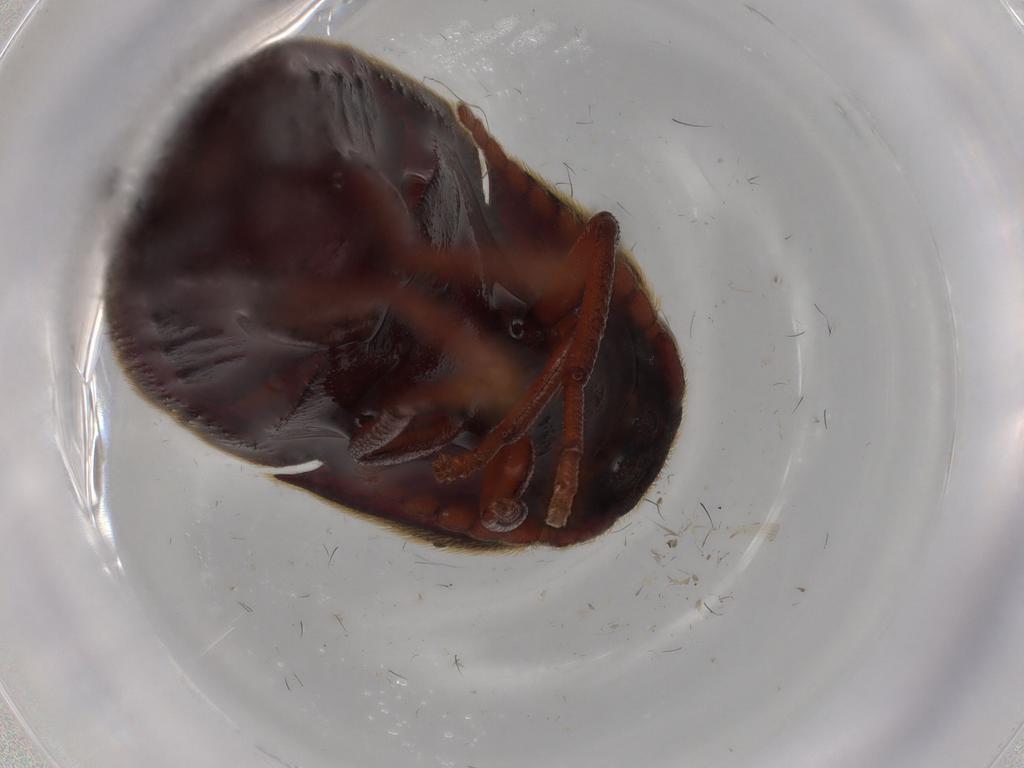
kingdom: Animalia
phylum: Arthropoda
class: Insecta
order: Coleoptera
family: Eucnemidae
